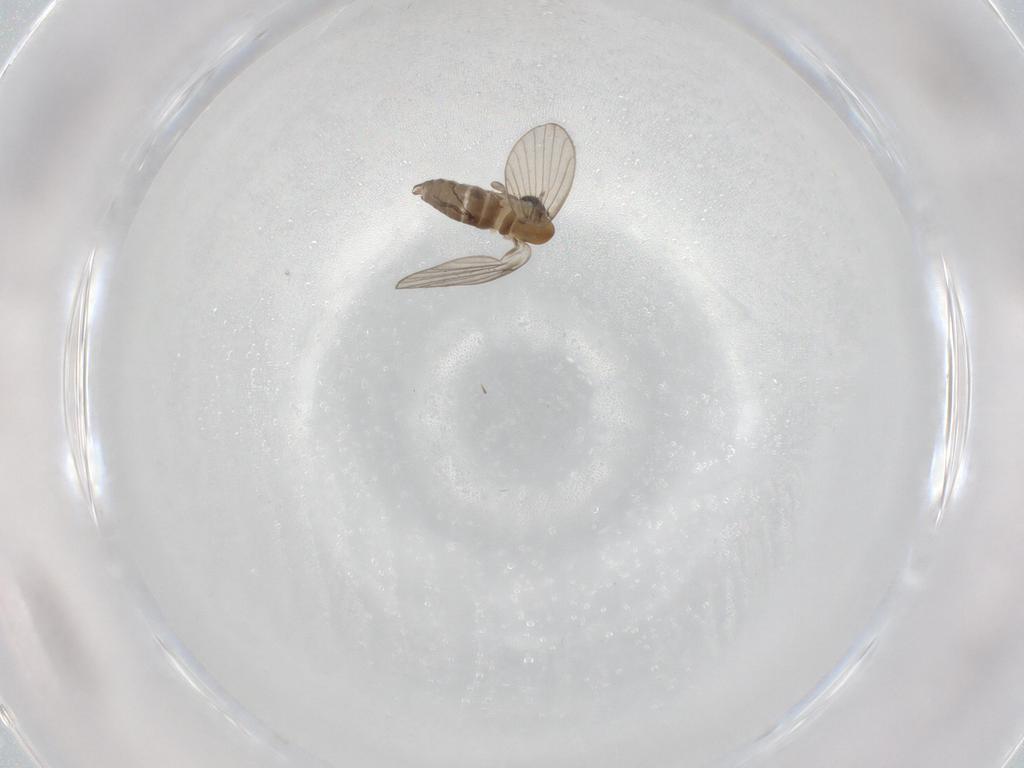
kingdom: Animalia
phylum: Arthropoda
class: Insecta
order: Diptera
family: Psychodidae
